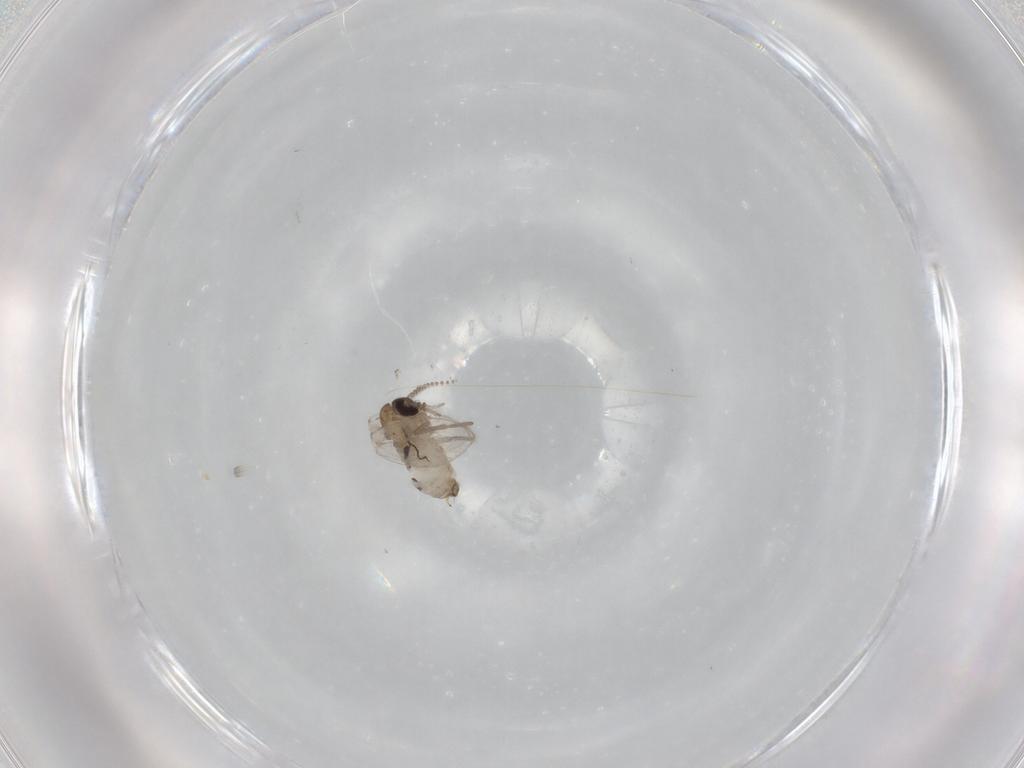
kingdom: Animalia
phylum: Arthropoda
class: Insecta
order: Diptera
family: Psychodidae
